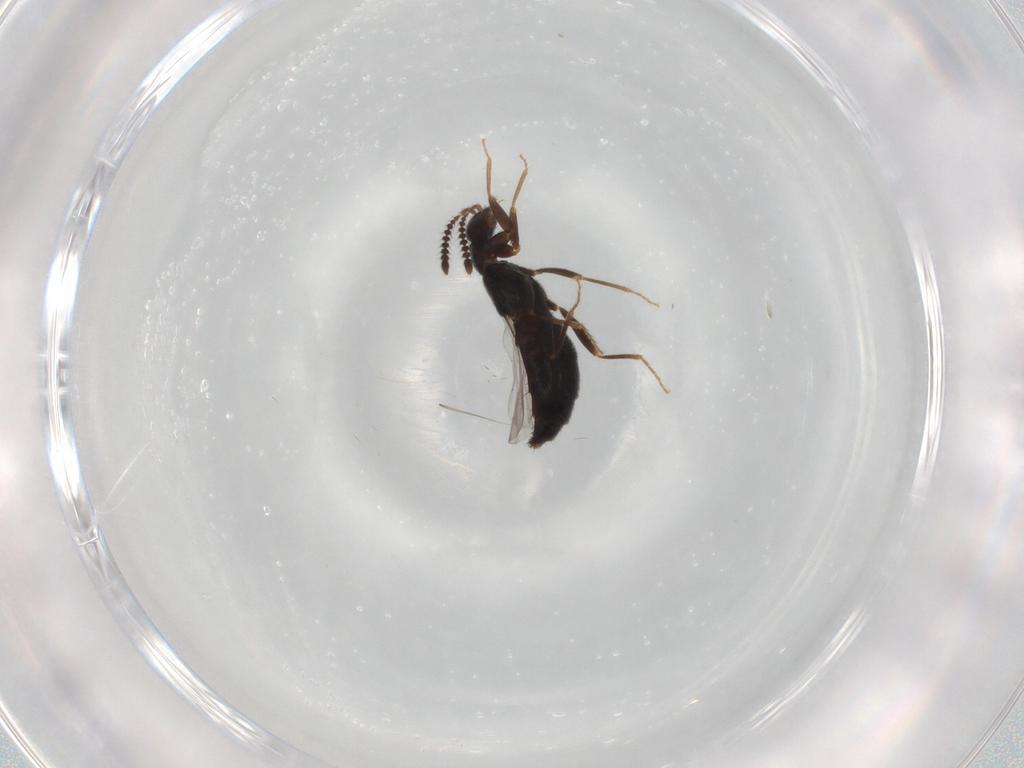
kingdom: Animalia
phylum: Arthropoda
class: Insecta
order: Coleoptera
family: Staphylinidae
